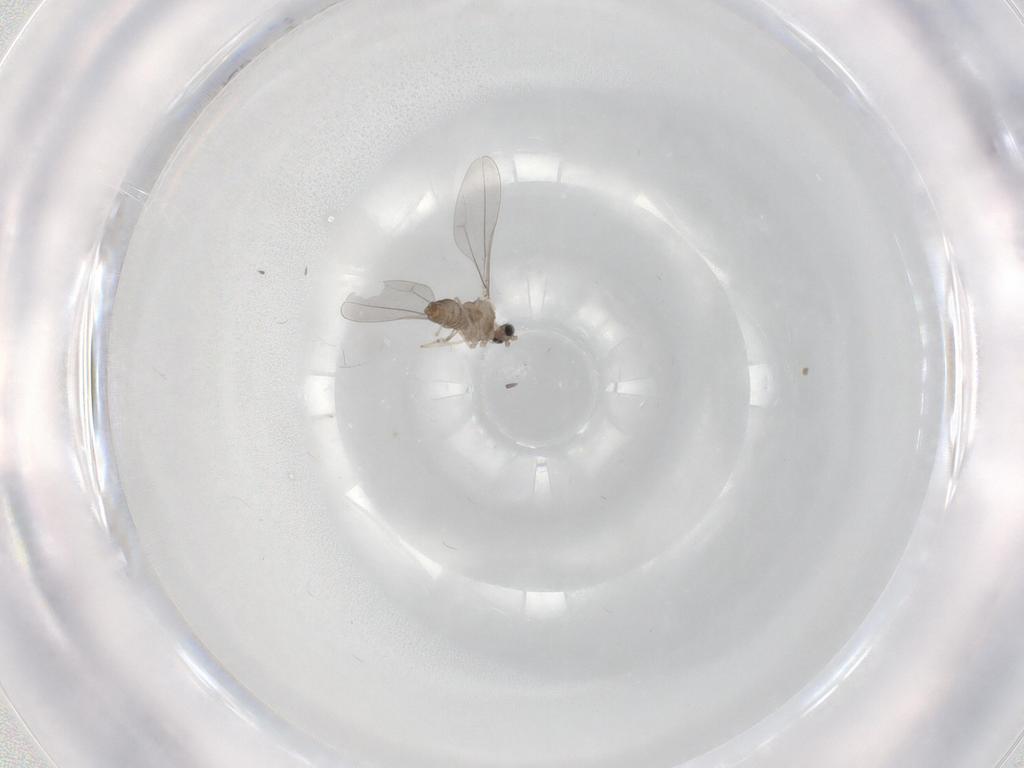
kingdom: Animalia
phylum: Arthropoda
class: Insecta
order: Diptera
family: Cecidomyiidae
